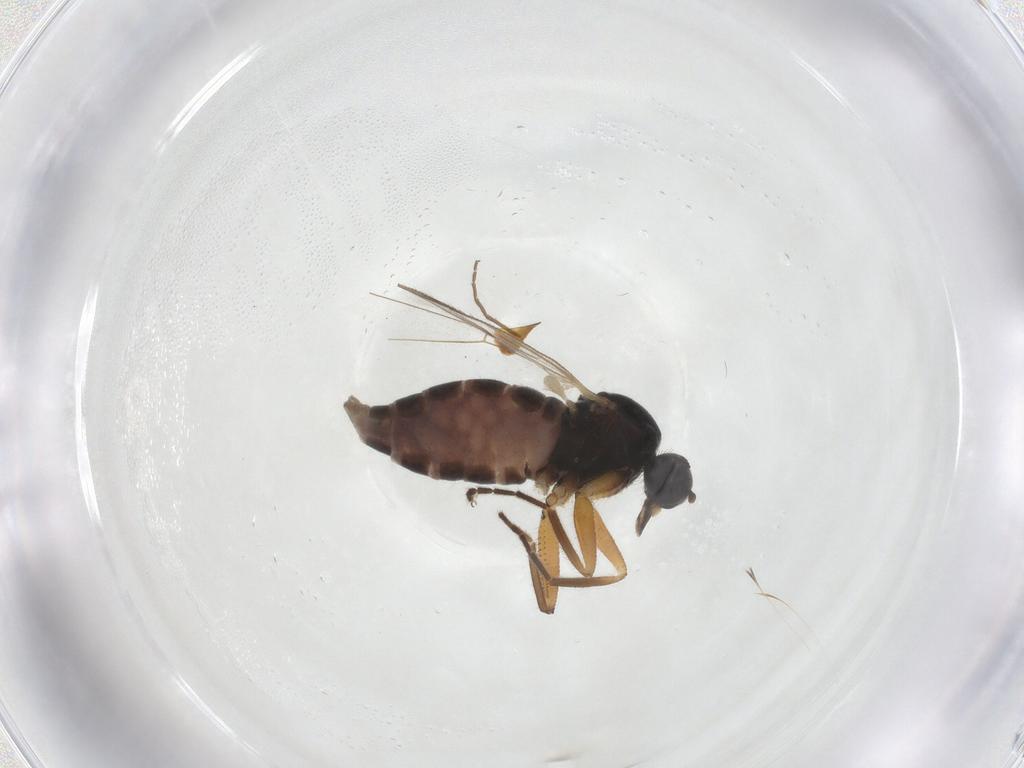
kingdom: Animalia
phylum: Arthropoda
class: Insecta
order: Diptera
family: Hybotidae
